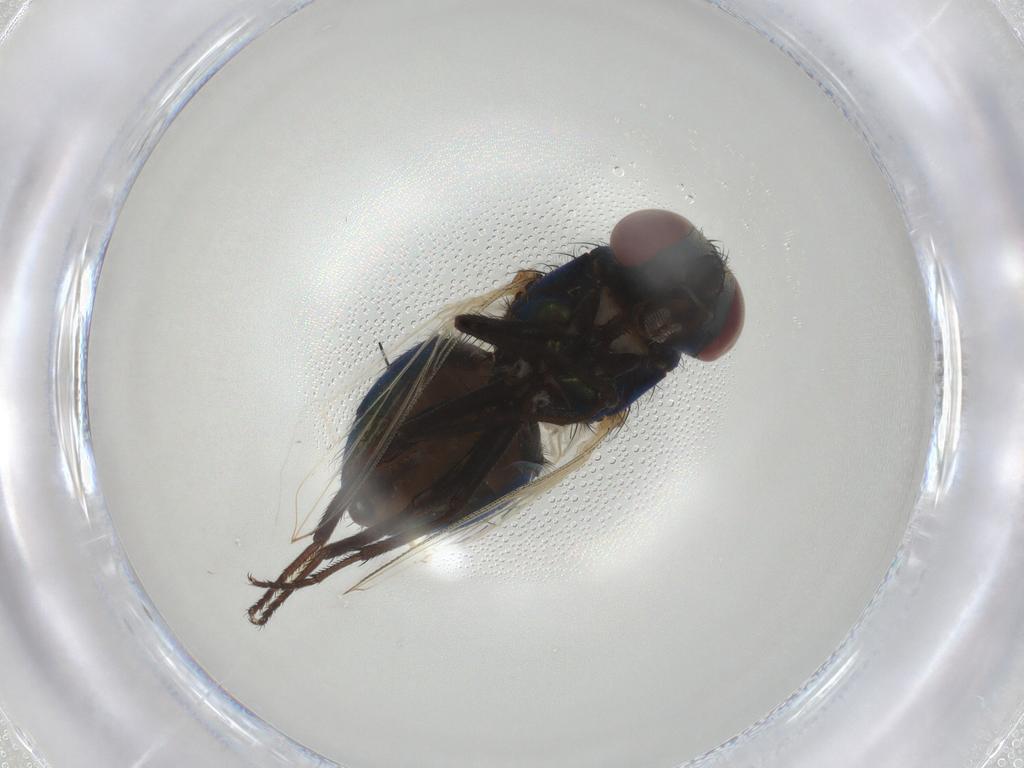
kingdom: Animalia
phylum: Arthropoda
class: Insecta
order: Diptera
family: Muscidae
